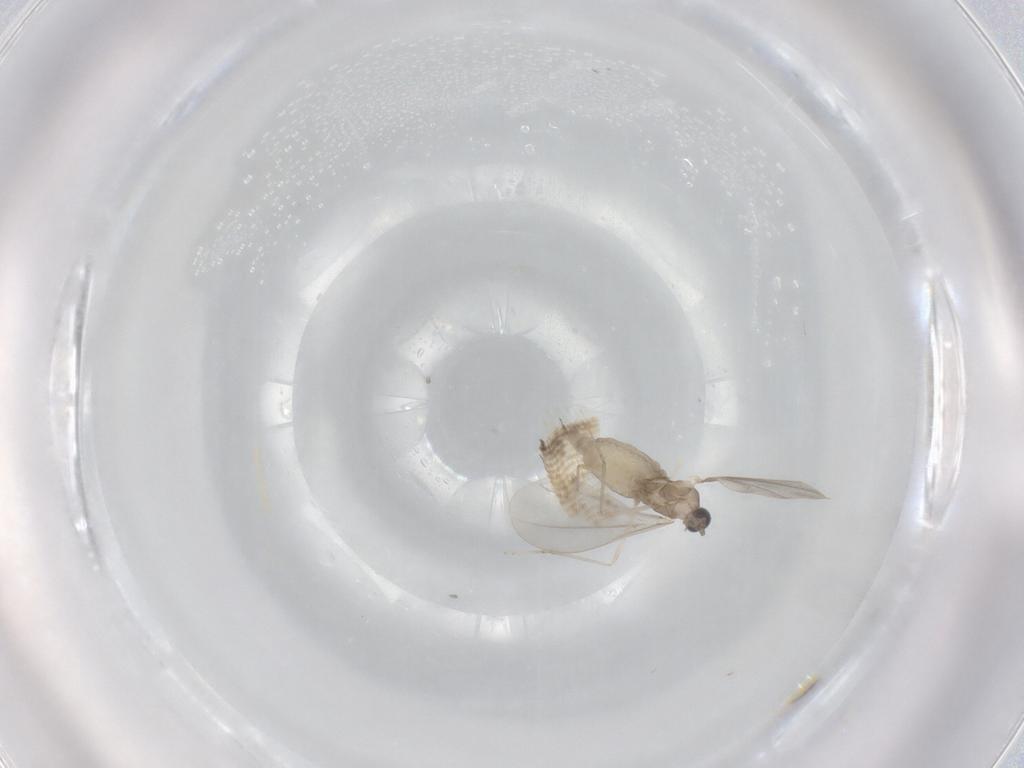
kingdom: Animalia
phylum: Arthropoda
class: Insecta
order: Diptera
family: Cecidomyiidae
